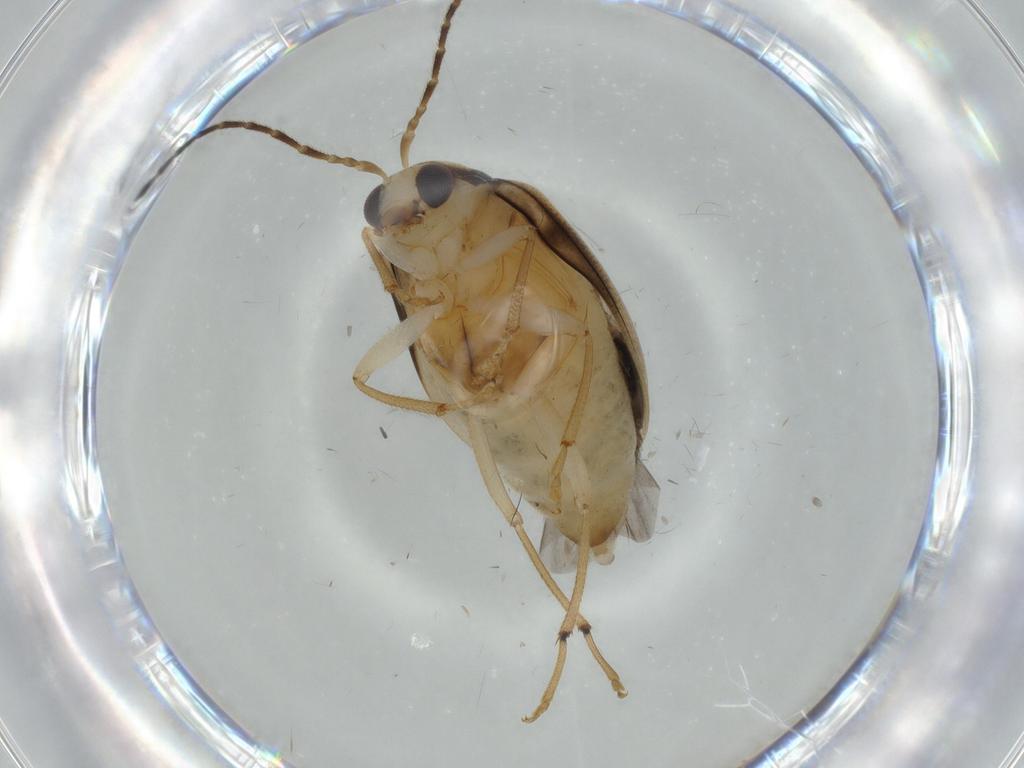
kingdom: Animalia
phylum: Arthropoda
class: Insecta
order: Coleoptera
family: Chrysomelidae
